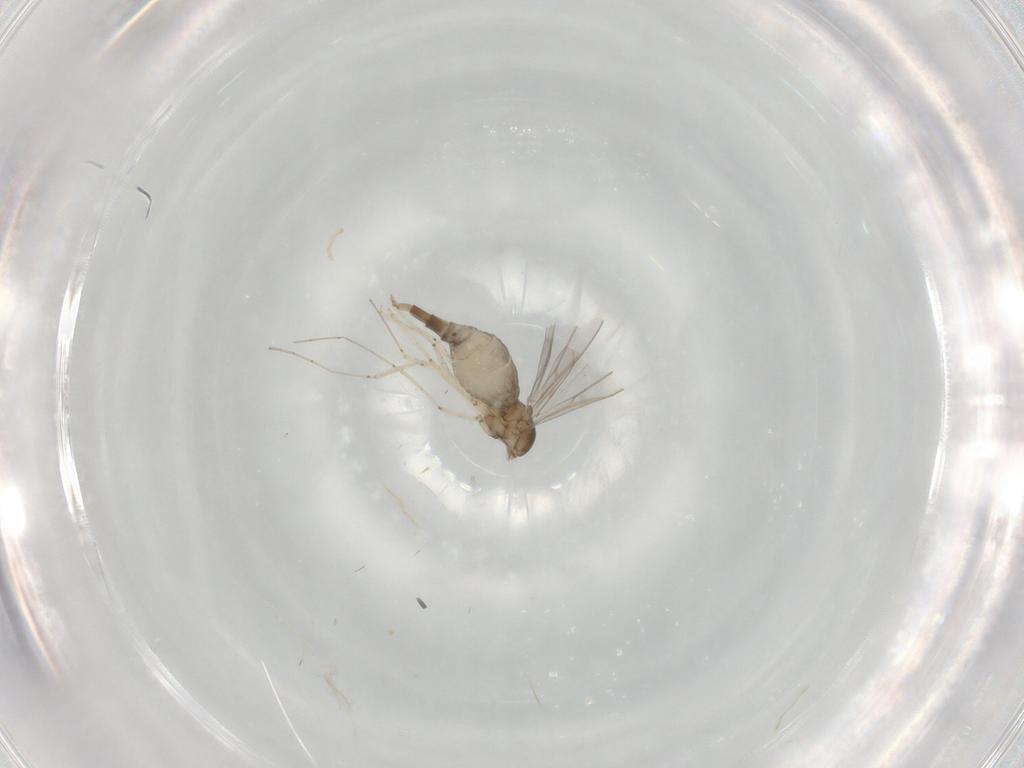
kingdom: Animalia
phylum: Arthropoda
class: Insecta
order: Diptera
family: Cecidomyiidae
